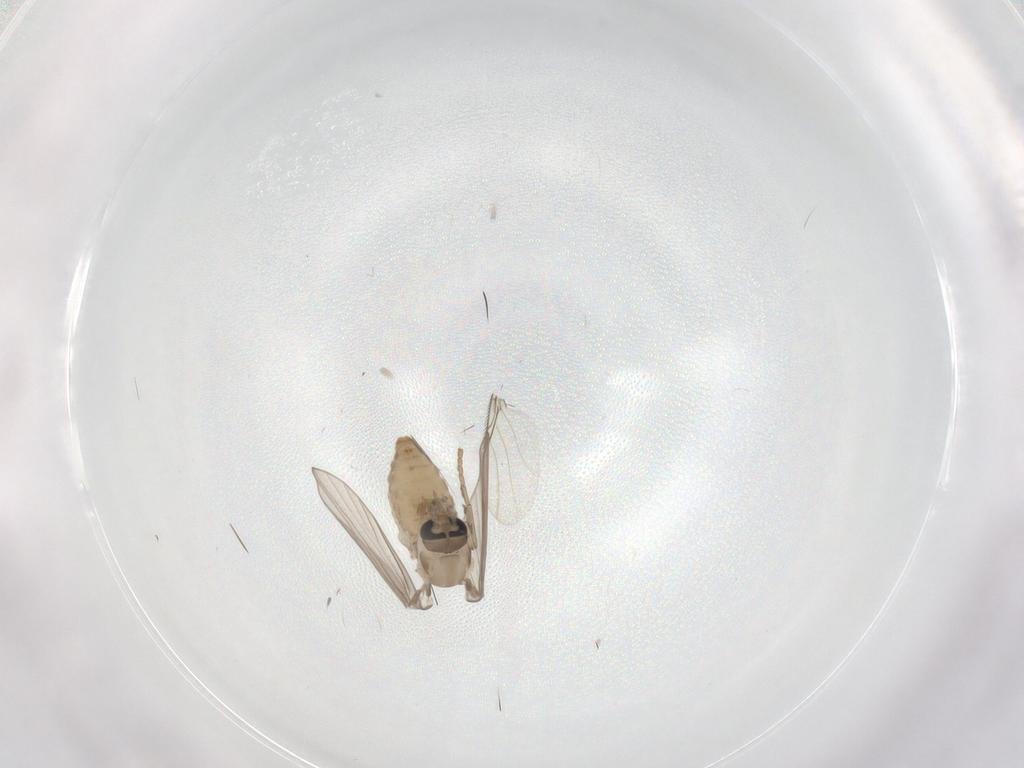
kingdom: Animalia
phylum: Arthropoda
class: Insecta
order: Diptera
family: Psychodidae
